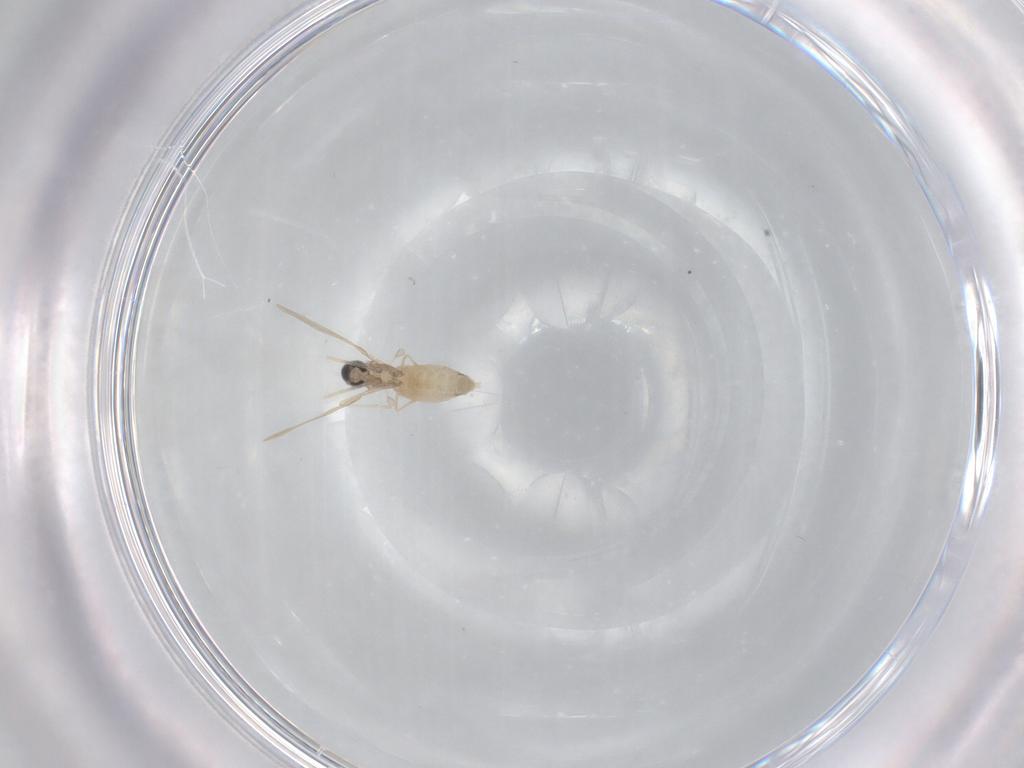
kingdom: Animalia
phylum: Arthropoda
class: Insecta
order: Diptera
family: Cecidomyiidae
